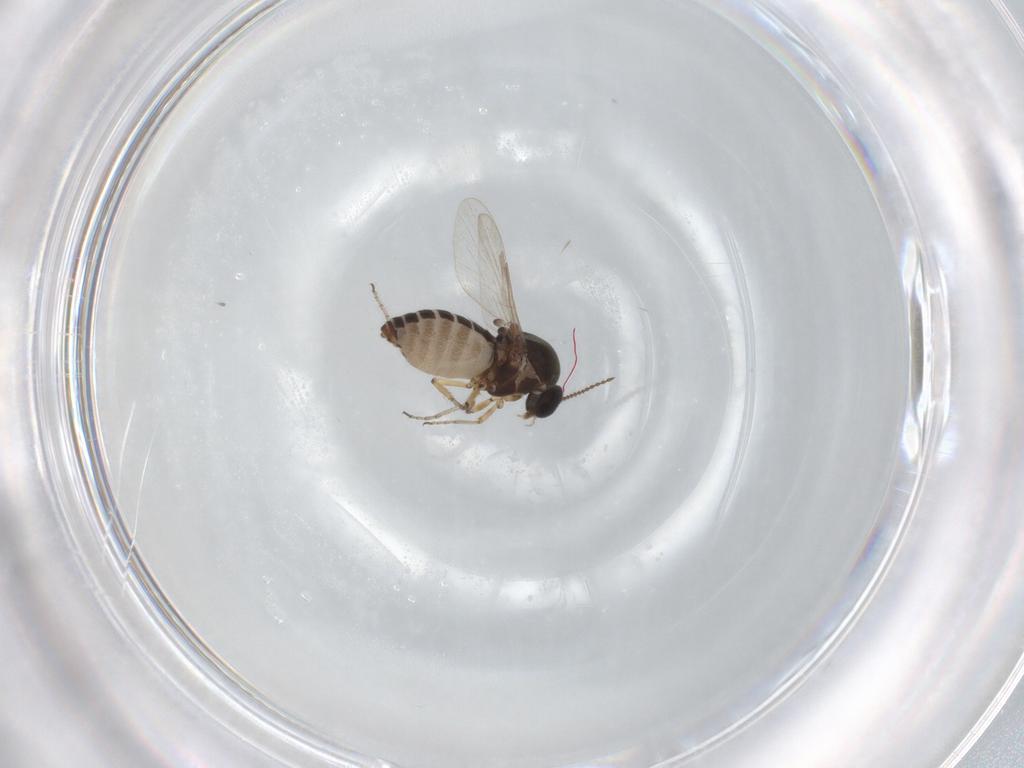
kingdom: Animalia
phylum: Arthropoda
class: Insecta
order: Diptera
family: Ceratopogonidae
